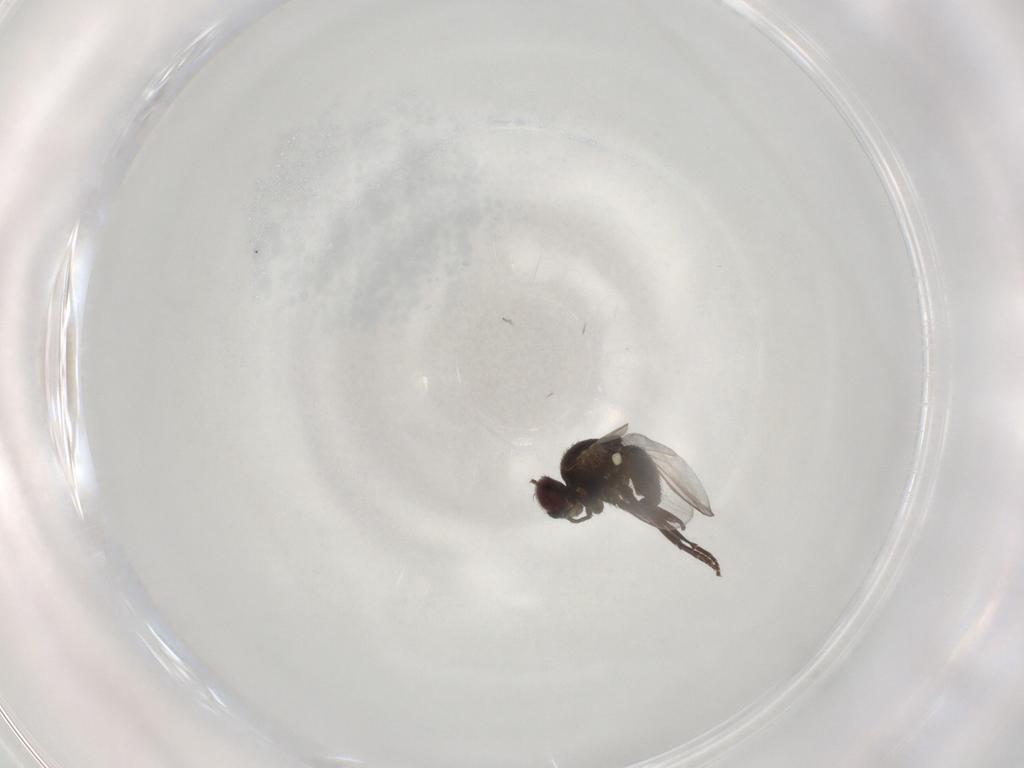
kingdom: Animalia
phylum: Arthropoda
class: Insecta
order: Diptera
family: Agromyzidae
